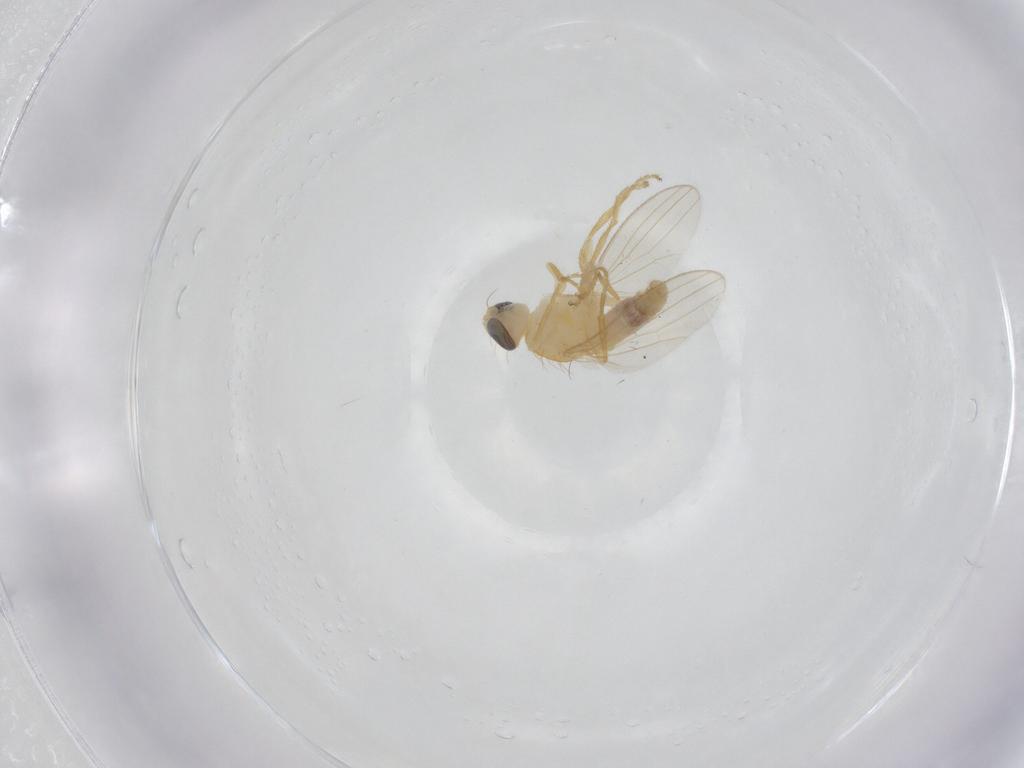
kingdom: Animalia
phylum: Arthropoda
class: Insecta
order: Diptera
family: Chyromyidae
